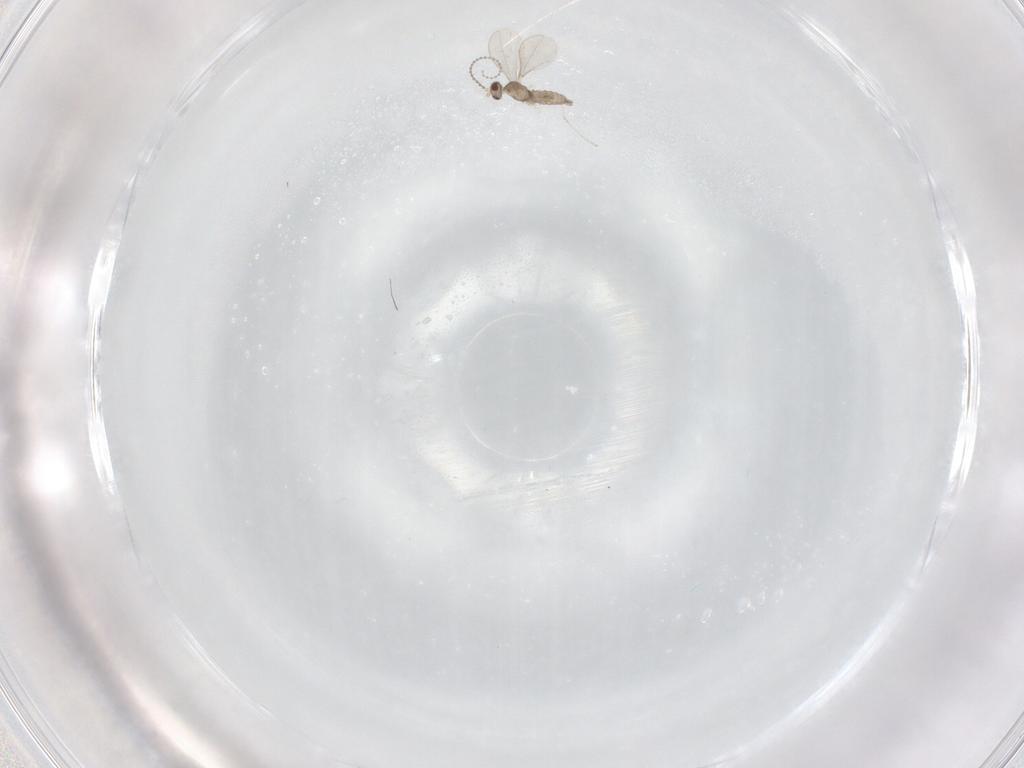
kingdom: Animalia
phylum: Arthropoda
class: Insecta
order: Diptera
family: Cecidomyiidae
